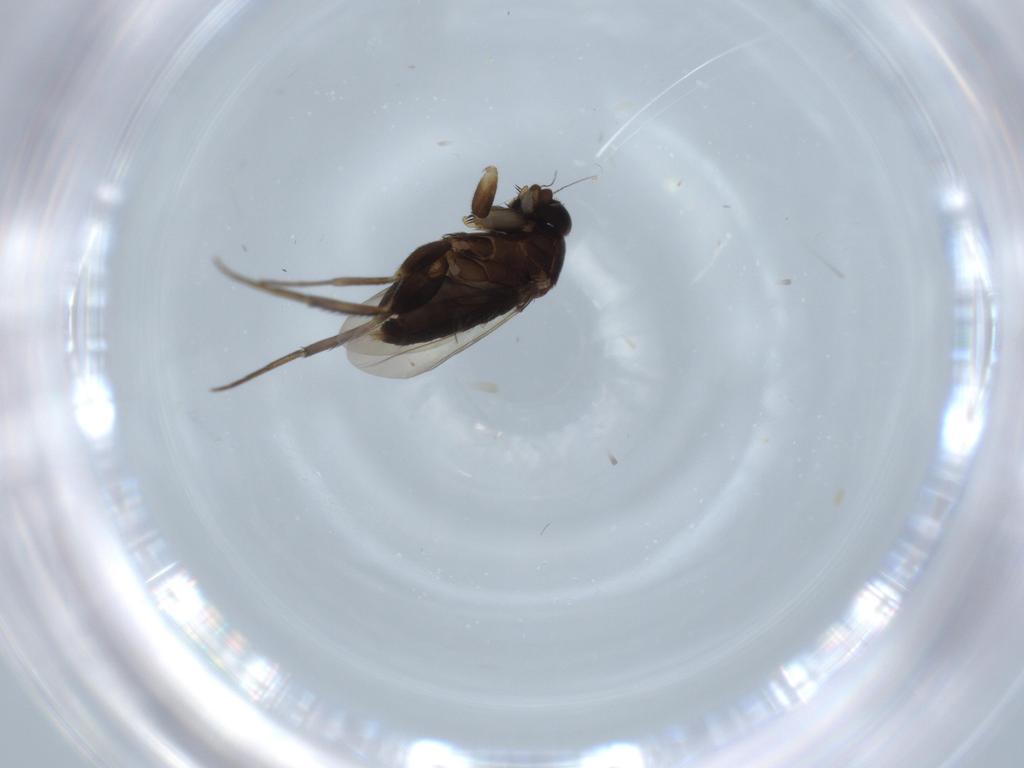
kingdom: Animalia
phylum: Arthropoda
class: Insecta
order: Diptera
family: Phoridae
